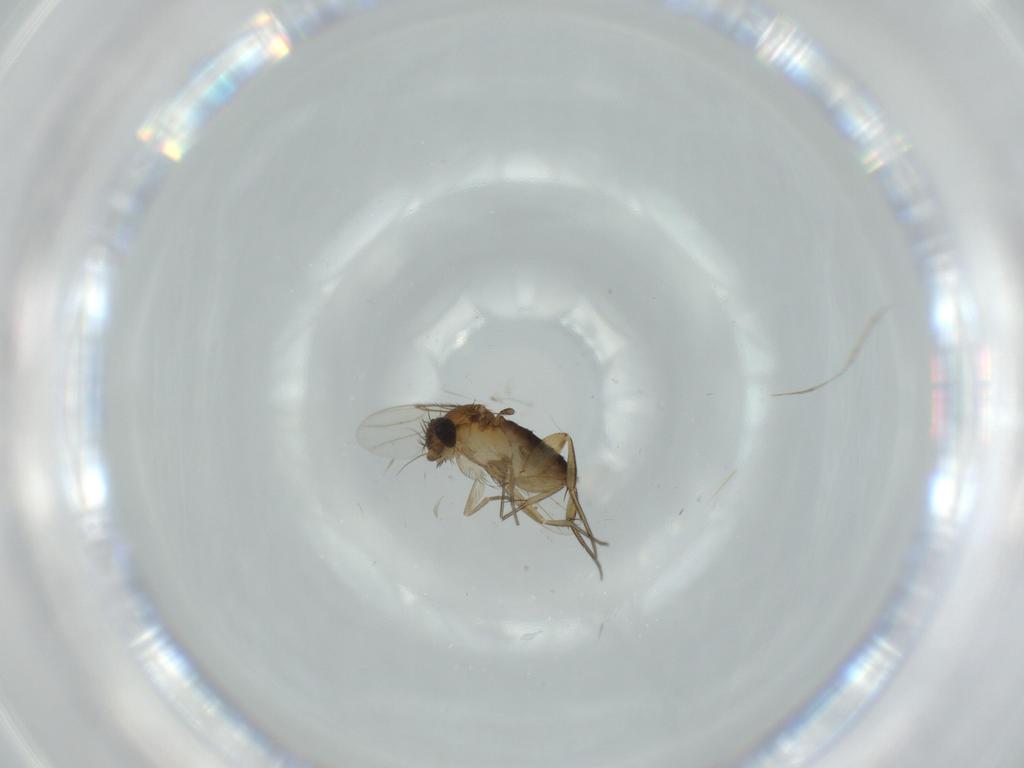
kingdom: Animalia
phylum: Arthropoda
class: Insecta
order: Diptera
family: Phoridae
